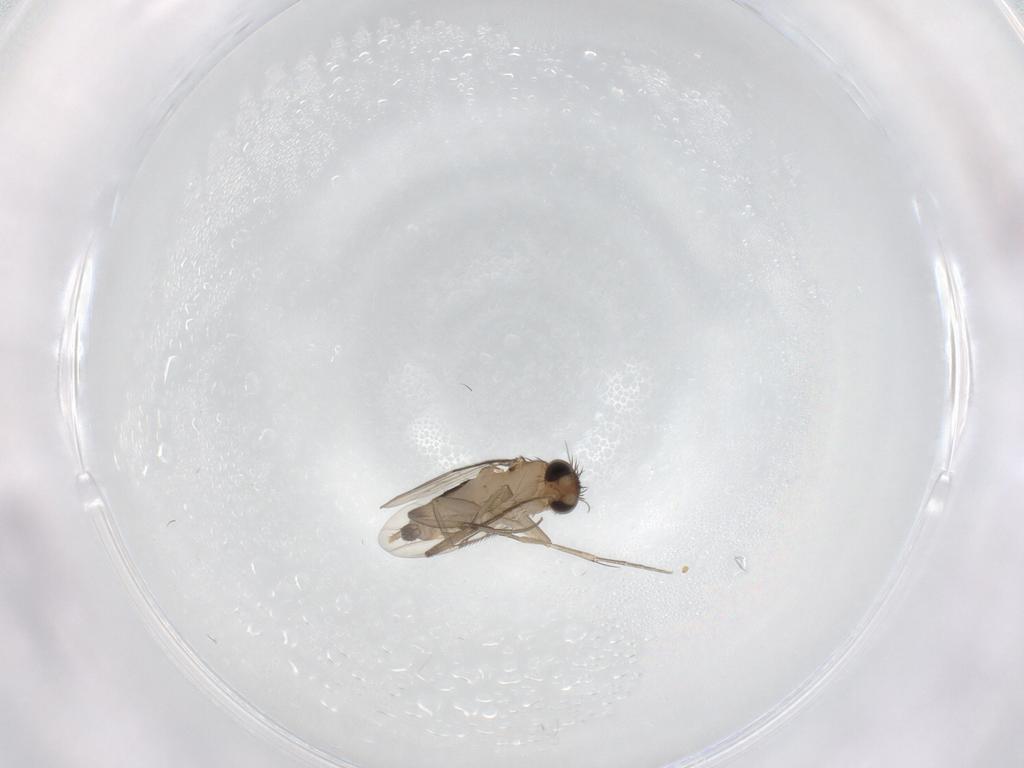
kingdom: Animalia
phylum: Arthropoda
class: Insecta
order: Diptera
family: Phoridae
